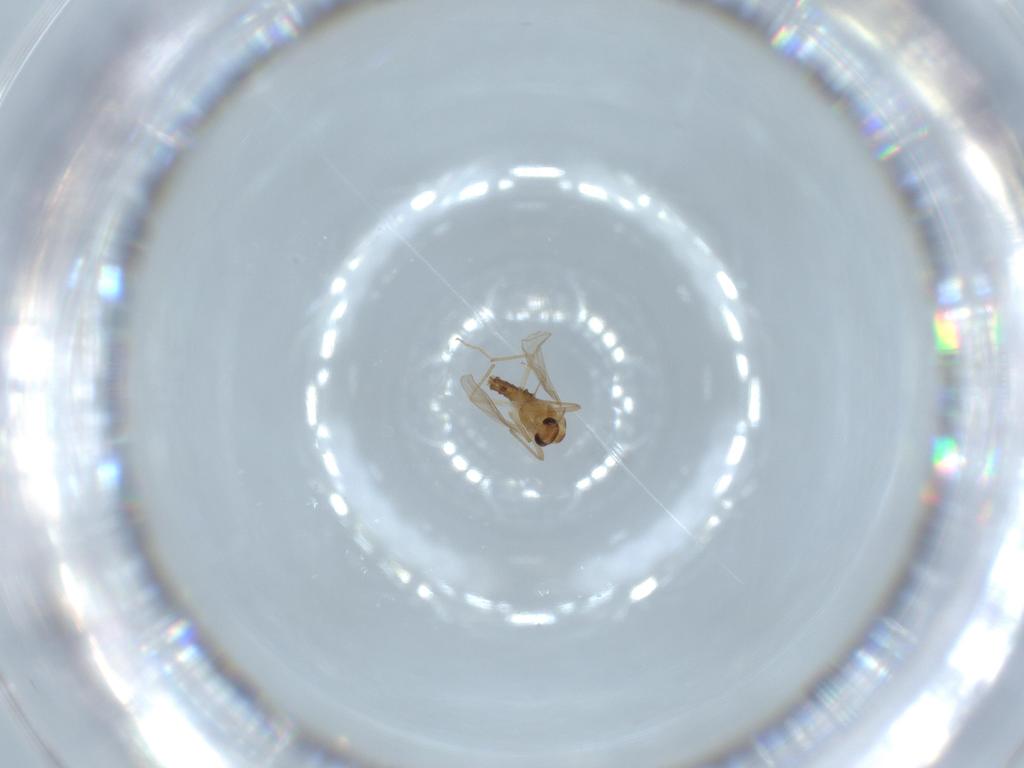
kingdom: Animalia
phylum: Arthropoda
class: Insecta
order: Diptera
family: Chironomidae
